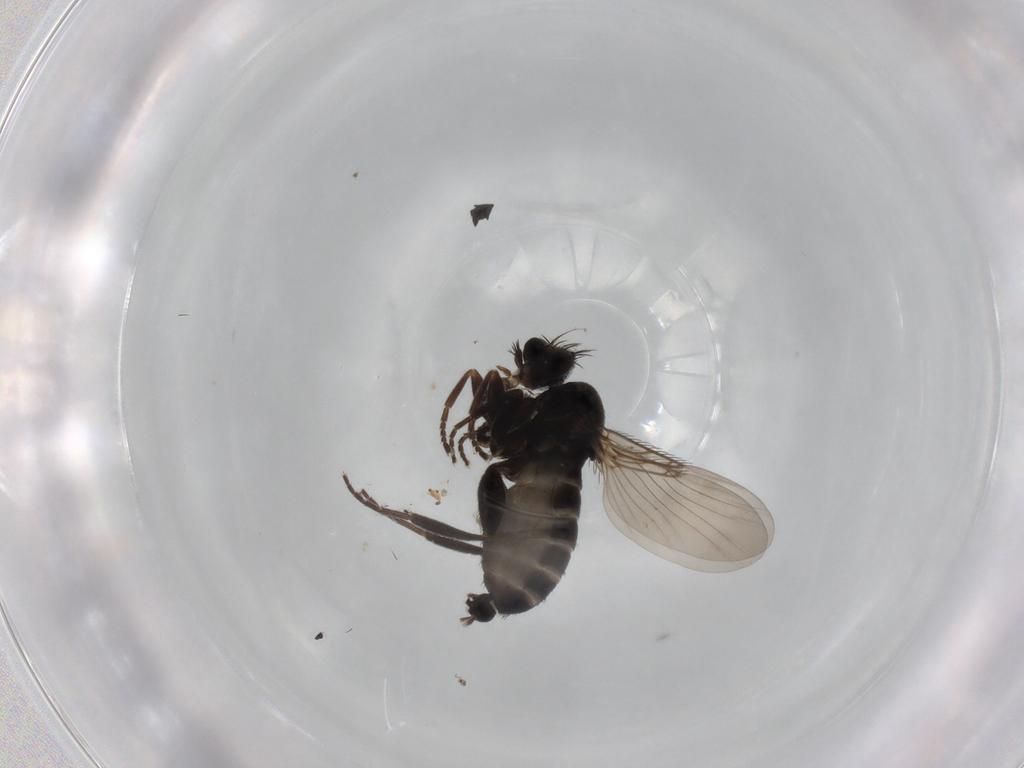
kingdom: Animalia
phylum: Arthropoda
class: Insecta
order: Diptera
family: Phoridae
